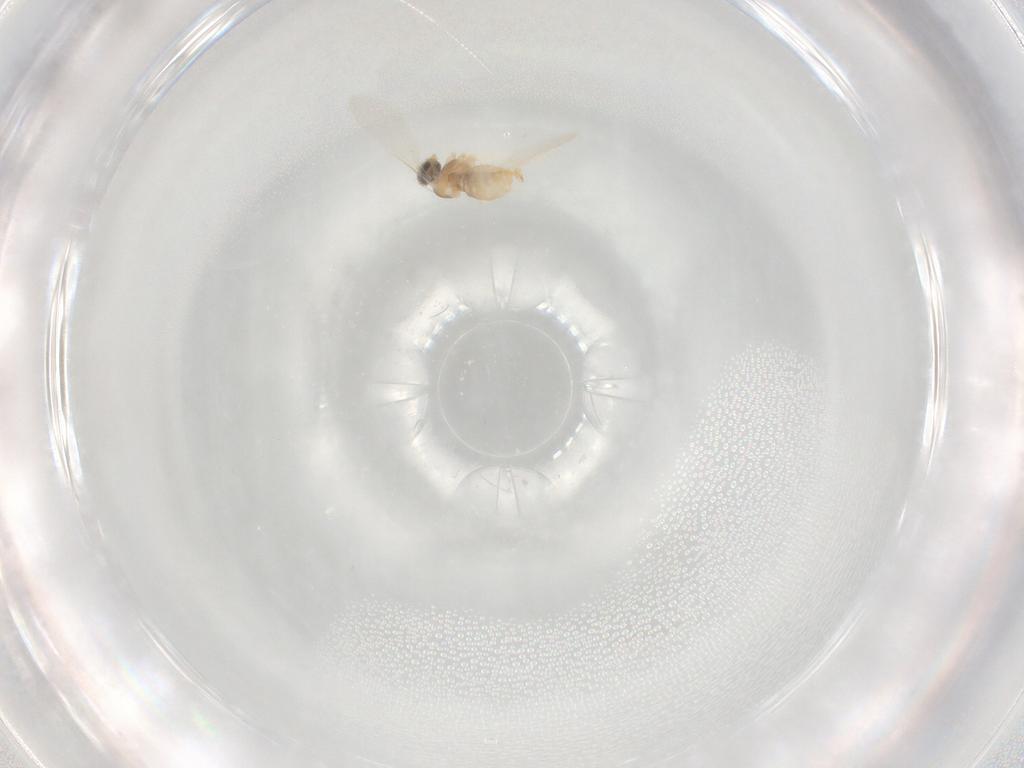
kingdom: Animalia
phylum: Arthropoda
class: Insecta
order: Diptera
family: Cecidomyiidae
